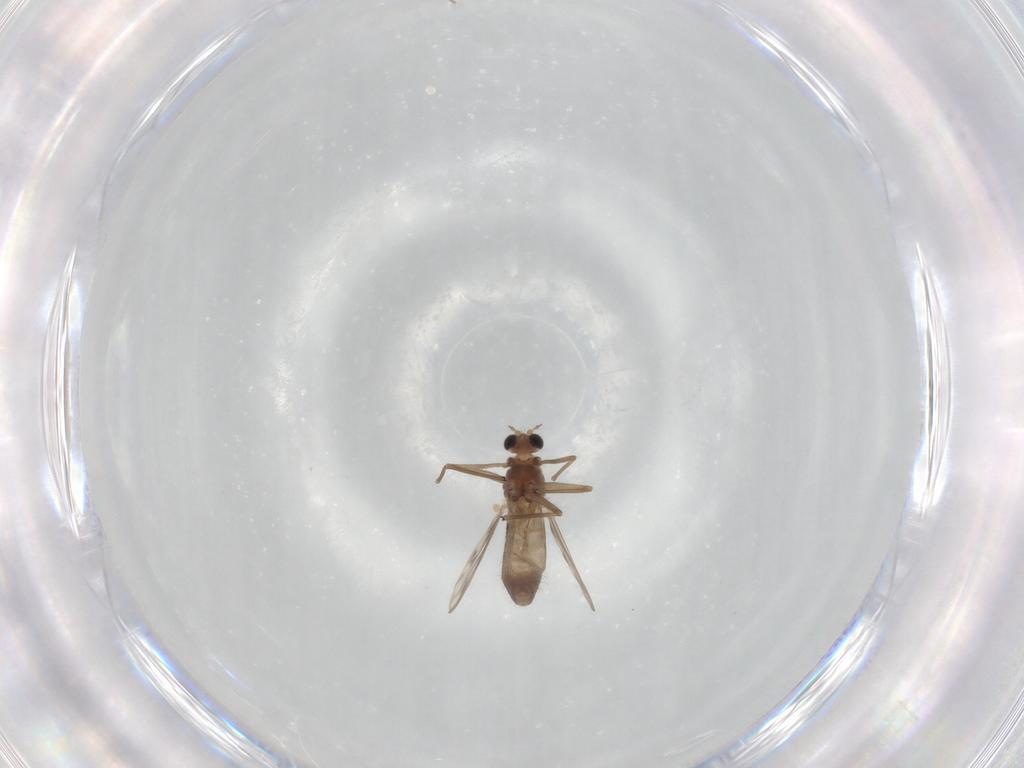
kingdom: Animalia
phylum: Arthropoda
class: Insecta
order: Diptera
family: Chironomidae
